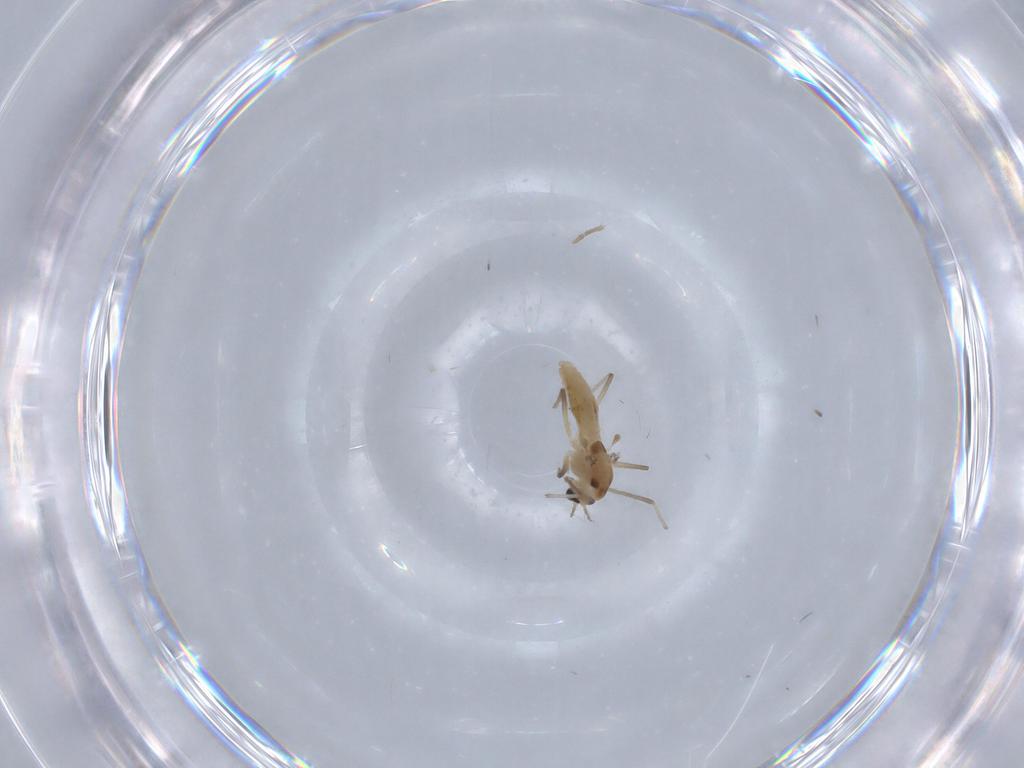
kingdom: Animalia
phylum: Arthropoda
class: Insecta
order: Diptera
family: Chironomidae
